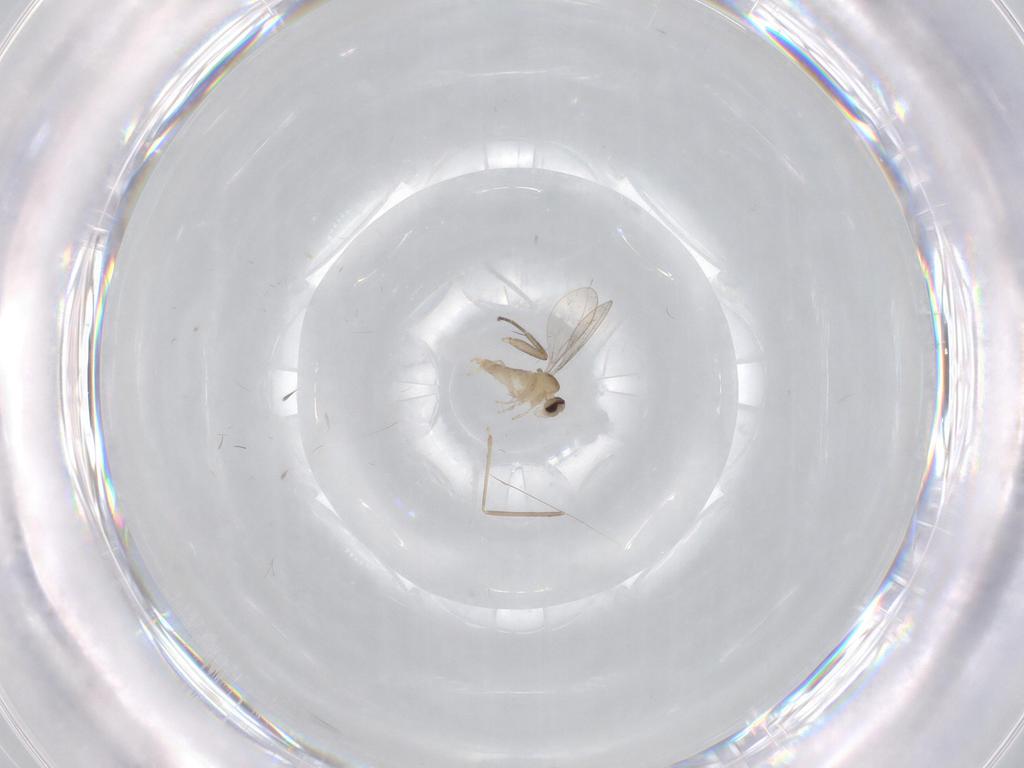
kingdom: Animalia
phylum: Arthropoda
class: Insecta
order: Diptera
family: Cecidomyiidae
